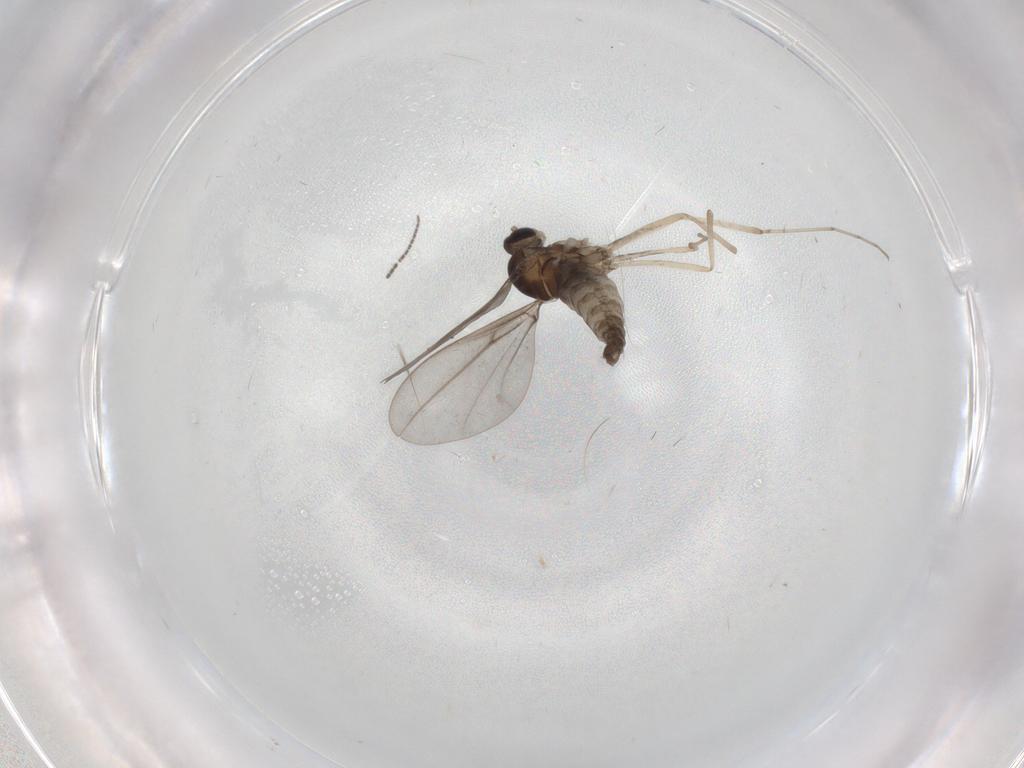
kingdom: Animalia
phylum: Arthropoda
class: Insecta
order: Diptera
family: Cecidomyiidae
